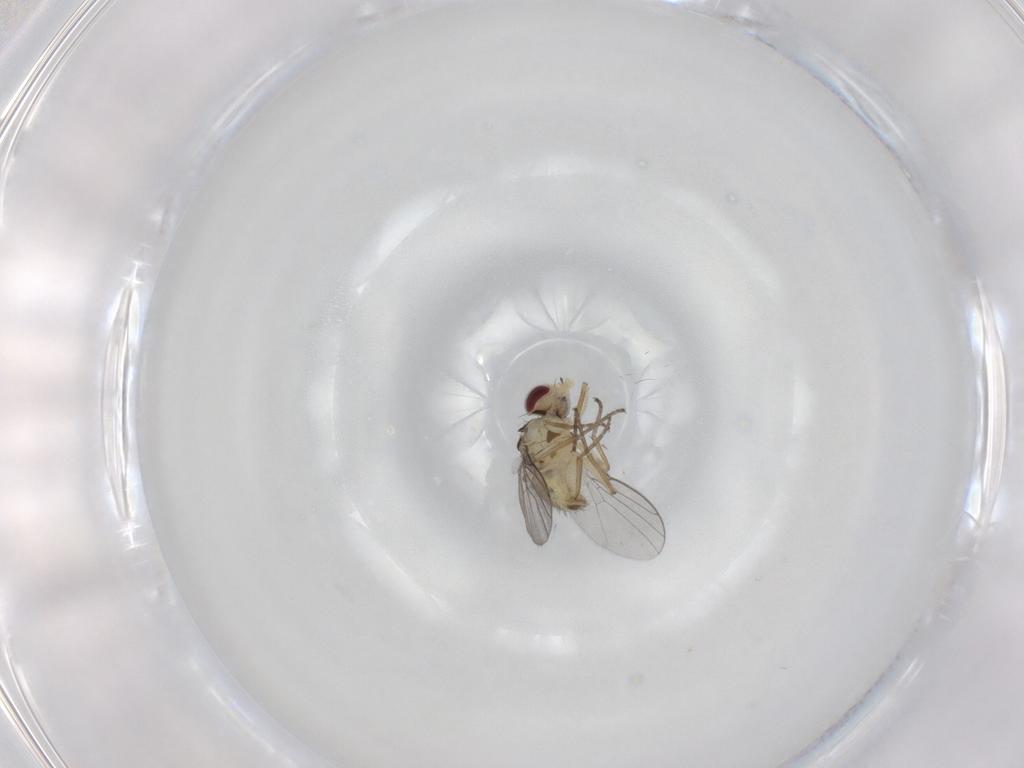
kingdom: Animalia
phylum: Arthropoda
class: Insecta
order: Diptera
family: Agromyzidae
